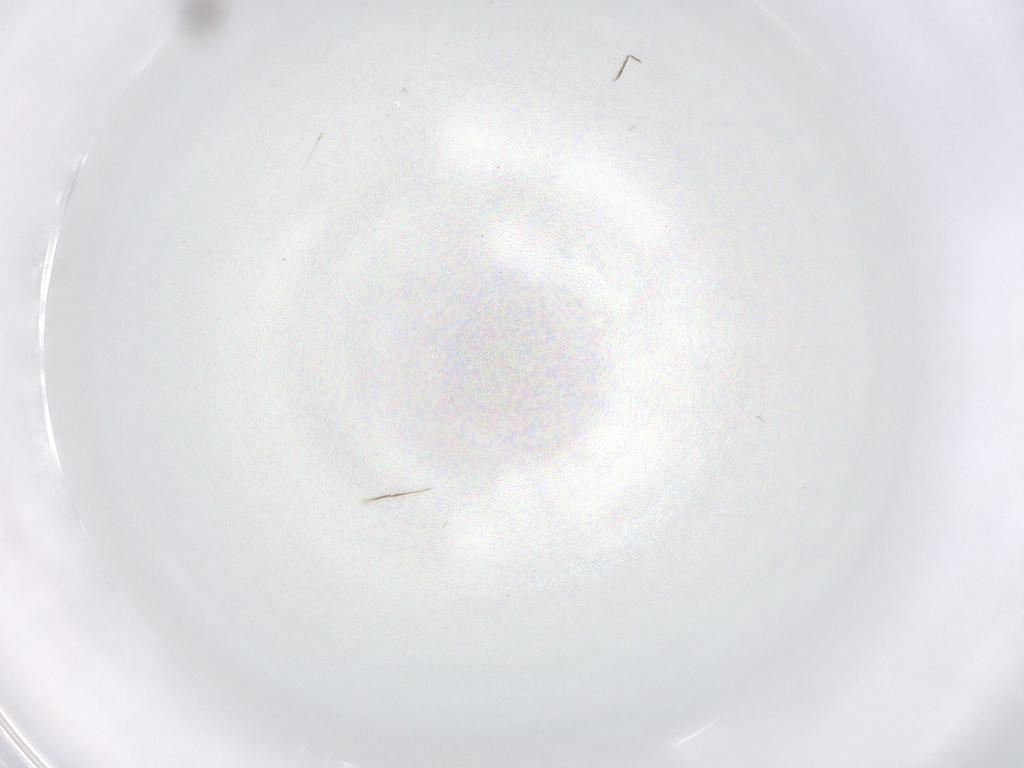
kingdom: Animalia
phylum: Arthropoda
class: Insecta
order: Diptera
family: Cecidomyiidae
